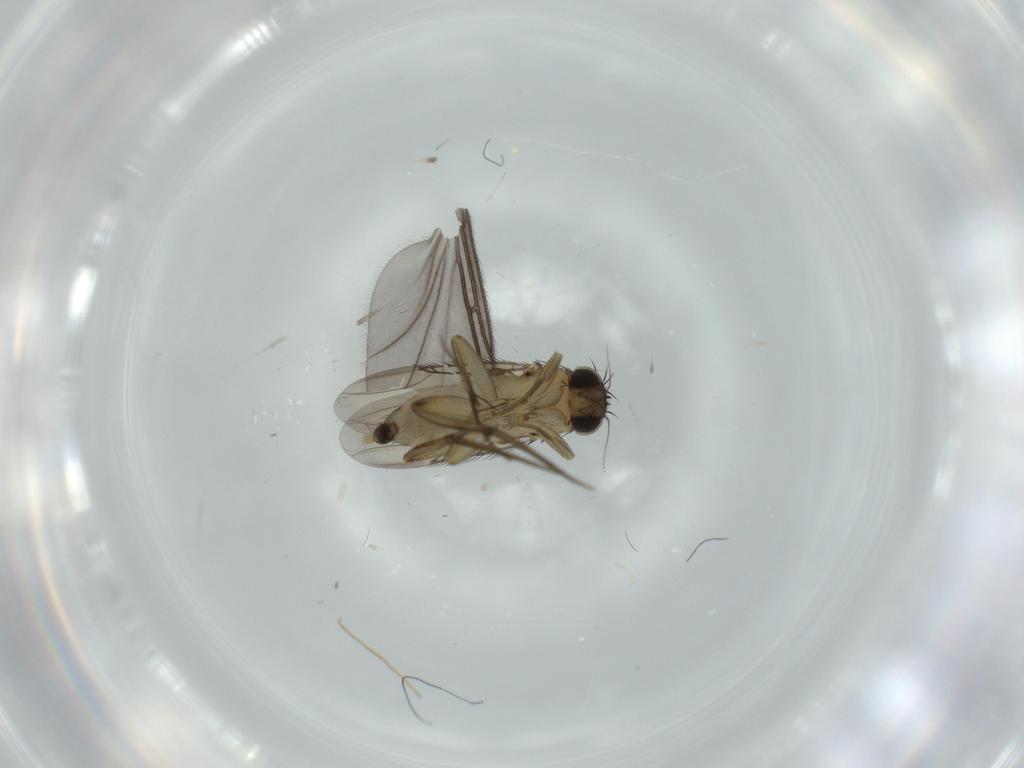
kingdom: Animalia
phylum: Arthropoda
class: Insecta
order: Diptera
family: Phoridae
